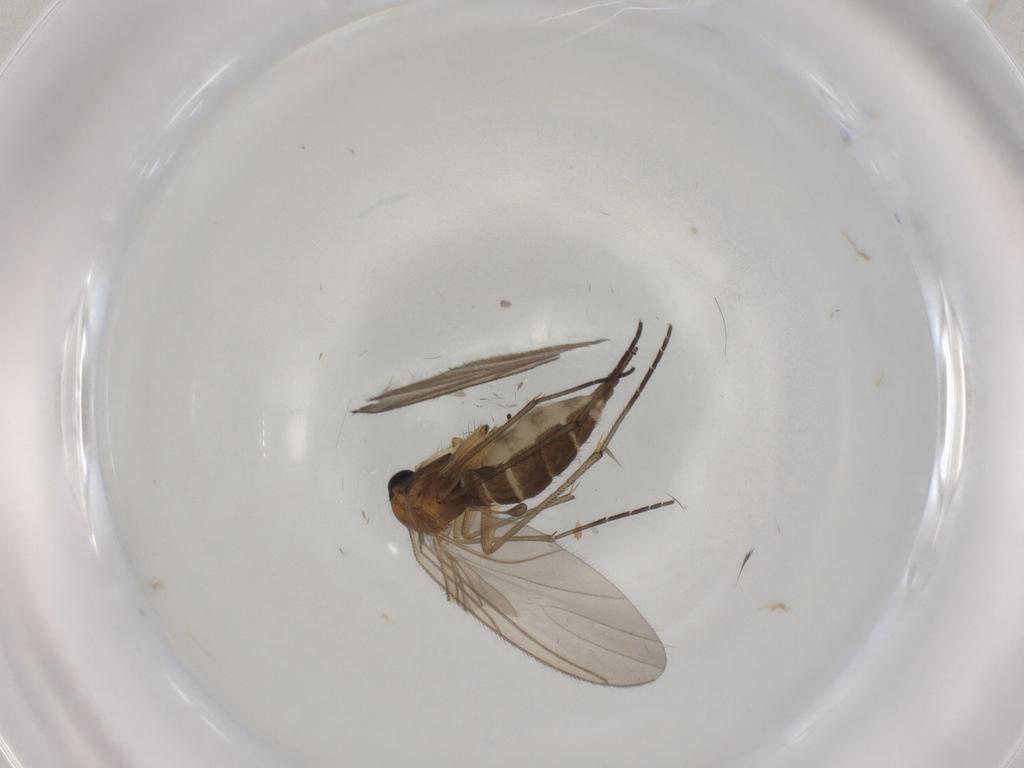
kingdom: Animalia
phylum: Arthropoda
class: Insecta
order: Diptera
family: Sciaridae
